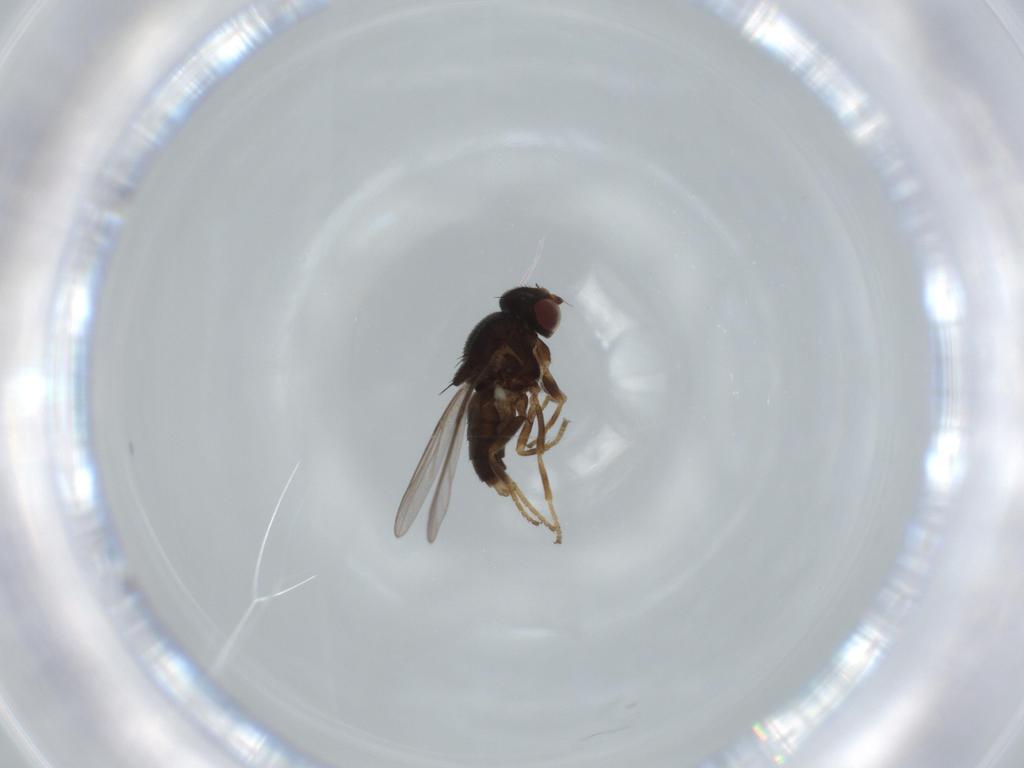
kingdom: Animalia
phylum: Arthropoda
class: Insecta
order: Diptera
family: Chloropidae
